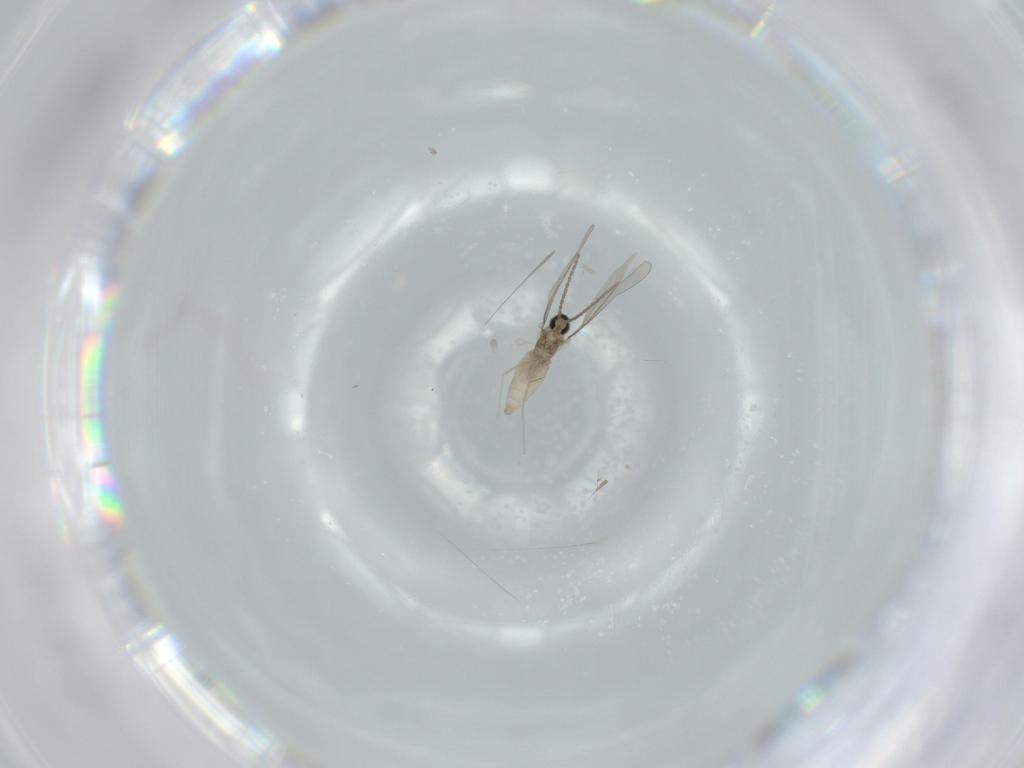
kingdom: Animalia
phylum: Arthropoda
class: Insecta
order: Diptera
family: Cecidomyiidae
